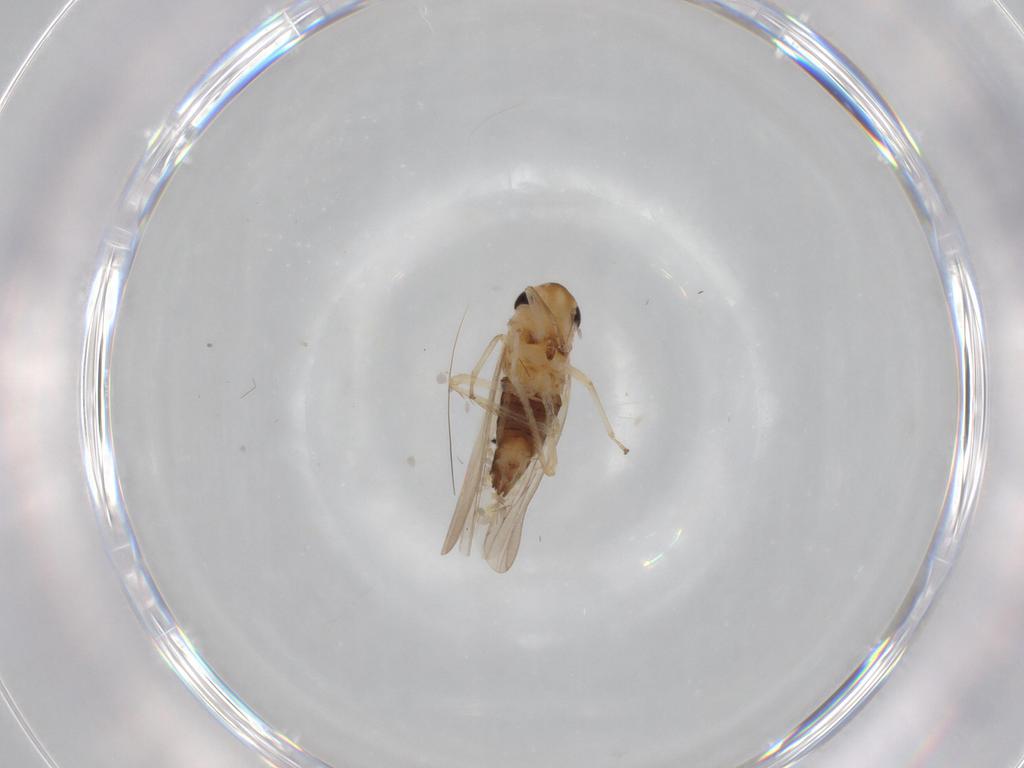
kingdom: Animalia
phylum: Arthropoda
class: Insecta
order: Hemiptera
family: Cicadellidae
